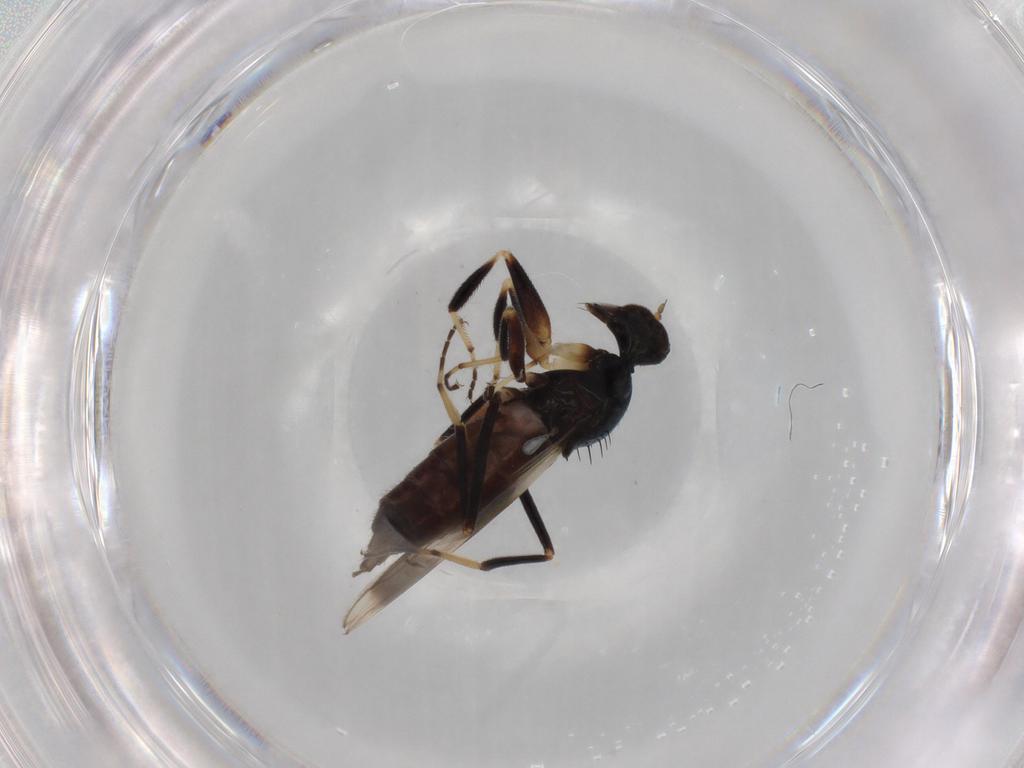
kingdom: Animalia
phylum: Arthropoda
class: Insecta
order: Diptera
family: Hybotidae
